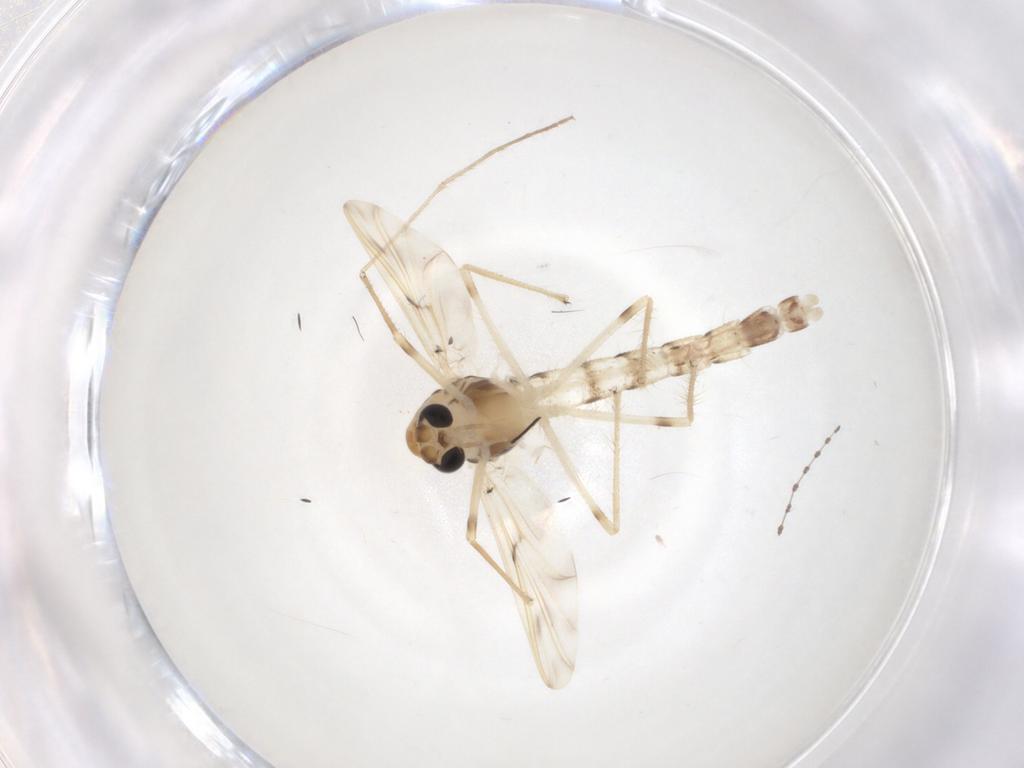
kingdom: Animalia
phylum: Arthropoda
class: Insecta
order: Diptera
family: Chironomidae
